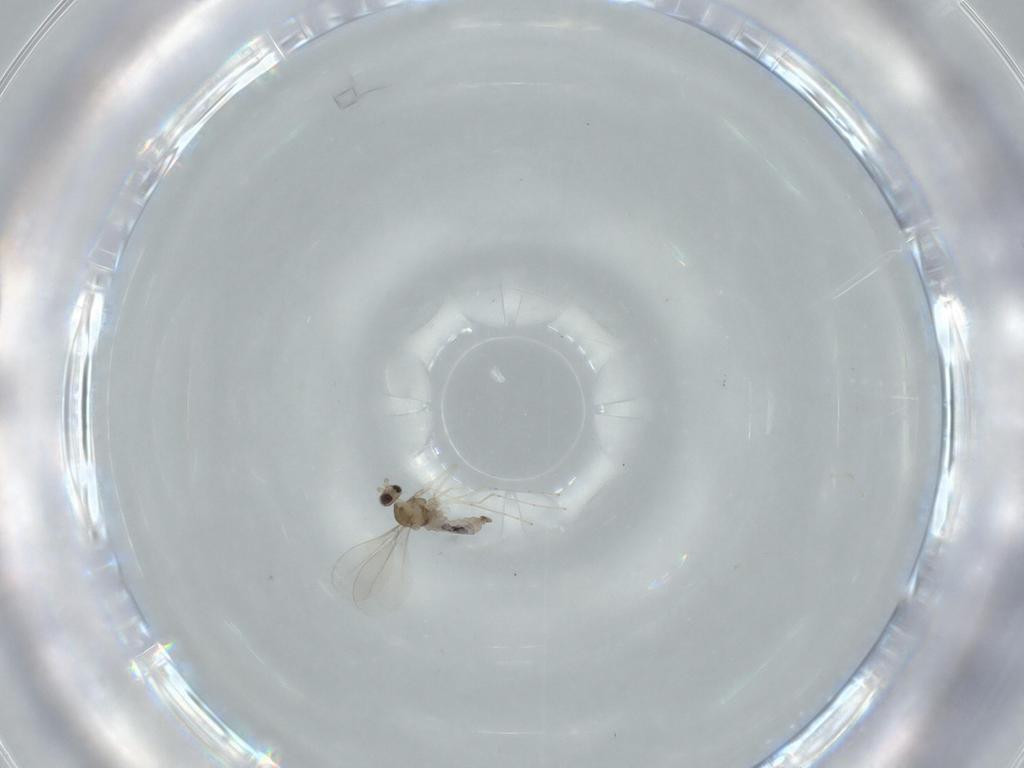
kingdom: Animalia
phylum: Arthropoda
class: Insecta
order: Diptera
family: Cecidomyiidae
